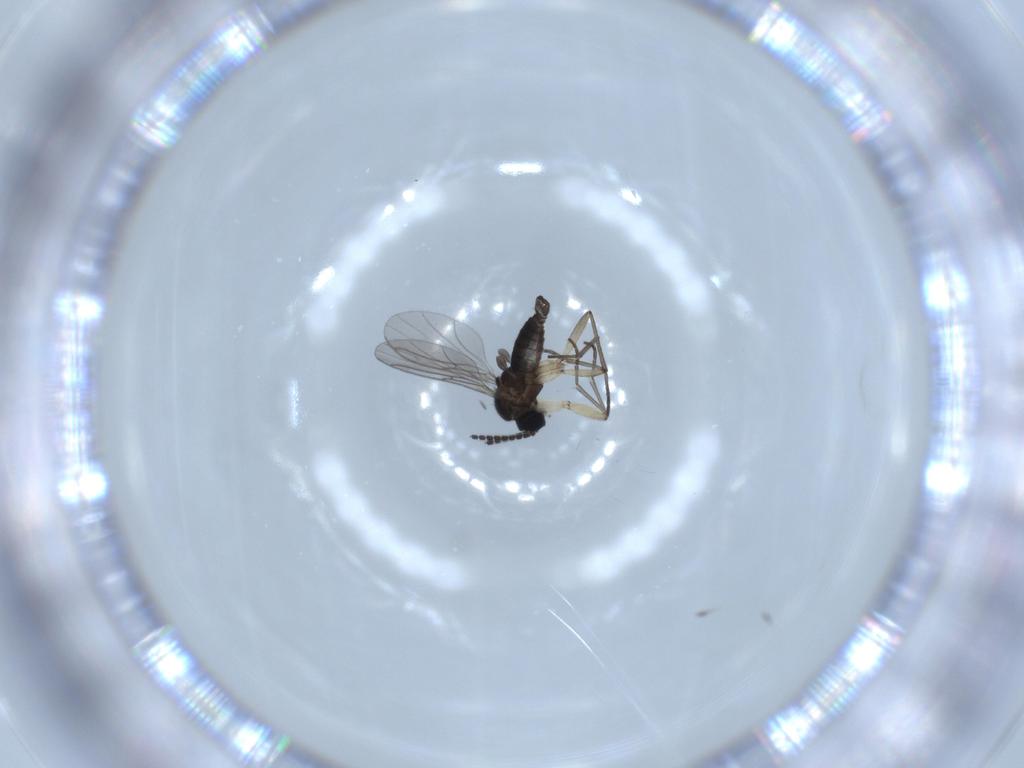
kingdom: Animalia
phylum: Arthropoda
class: Insecta
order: Diptera
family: Sciaridae
